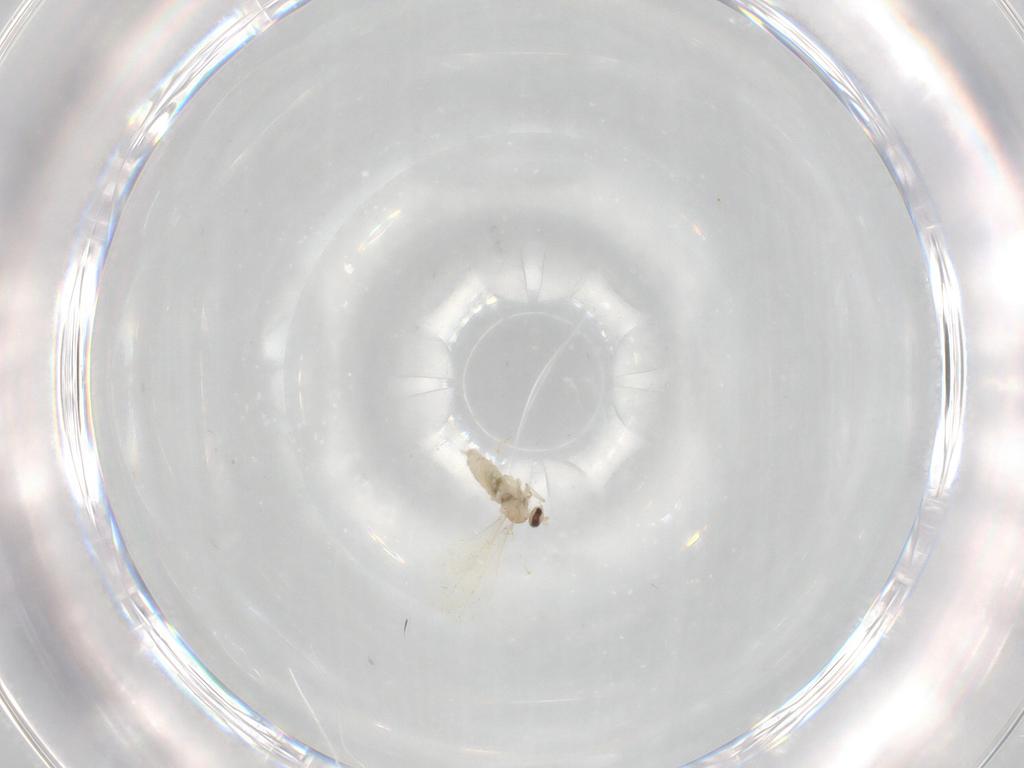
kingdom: Animalia
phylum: Arthropoda
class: Insecta
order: Diptera
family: Cecidomyiidae
